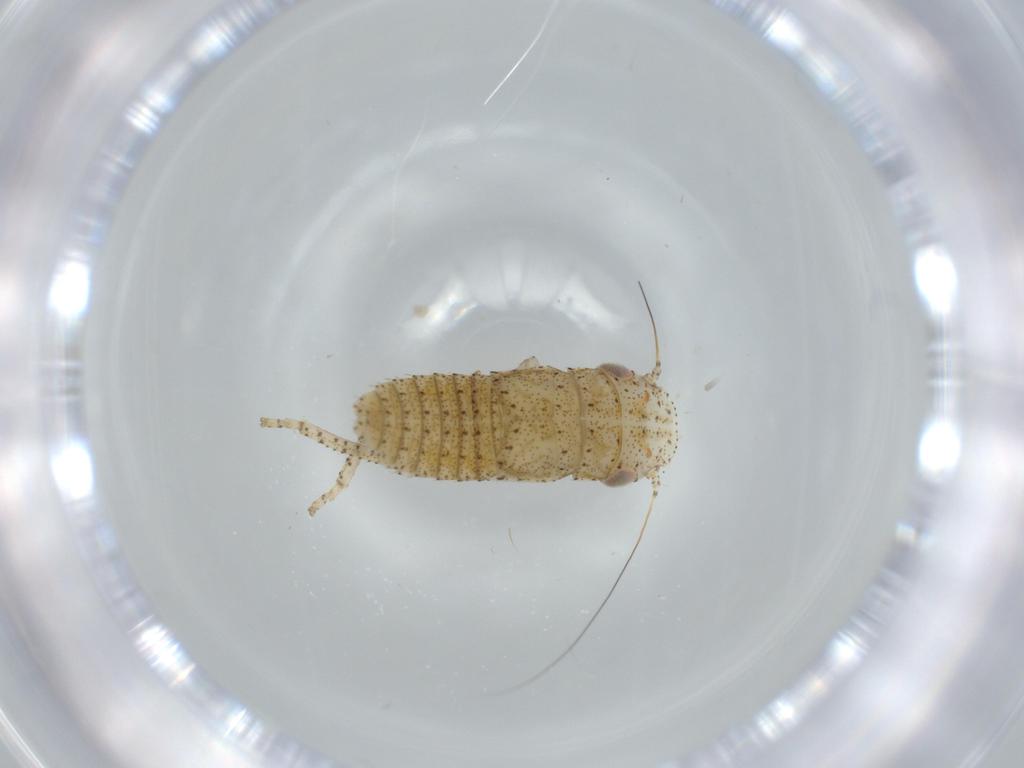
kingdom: Animalia
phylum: Arthropoda
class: Insecta
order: Hemiptera
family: Cicadellidae
